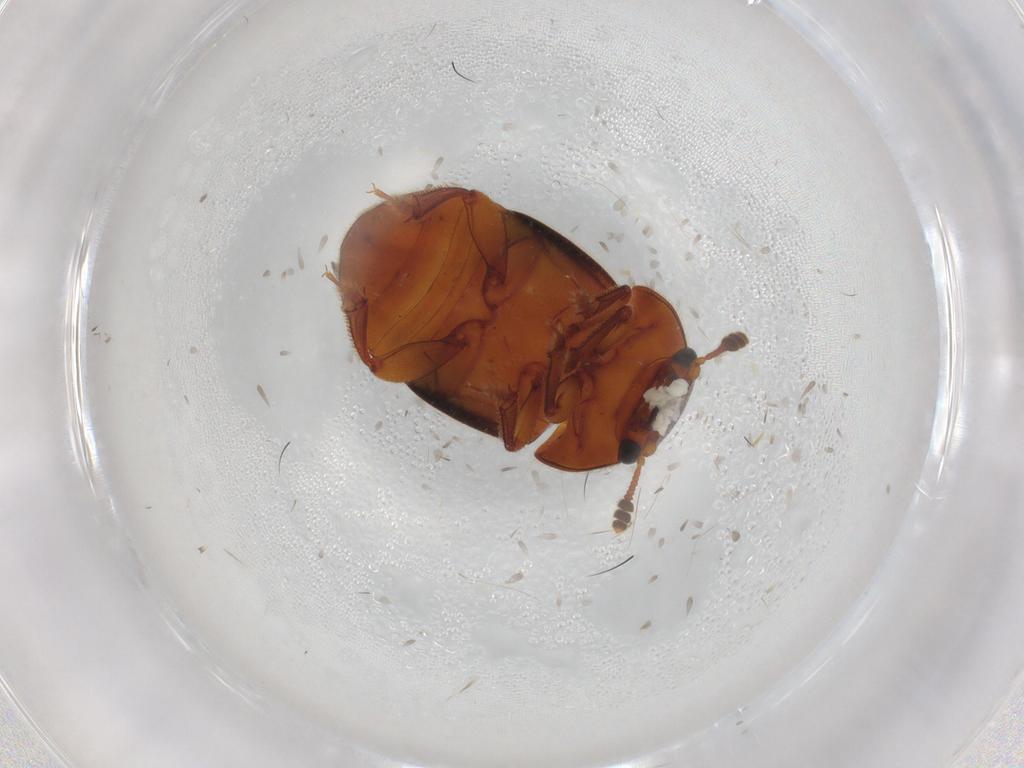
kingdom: Animalia
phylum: Arthropoda
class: Insecta
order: Coleoptera
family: Nitidulidae
